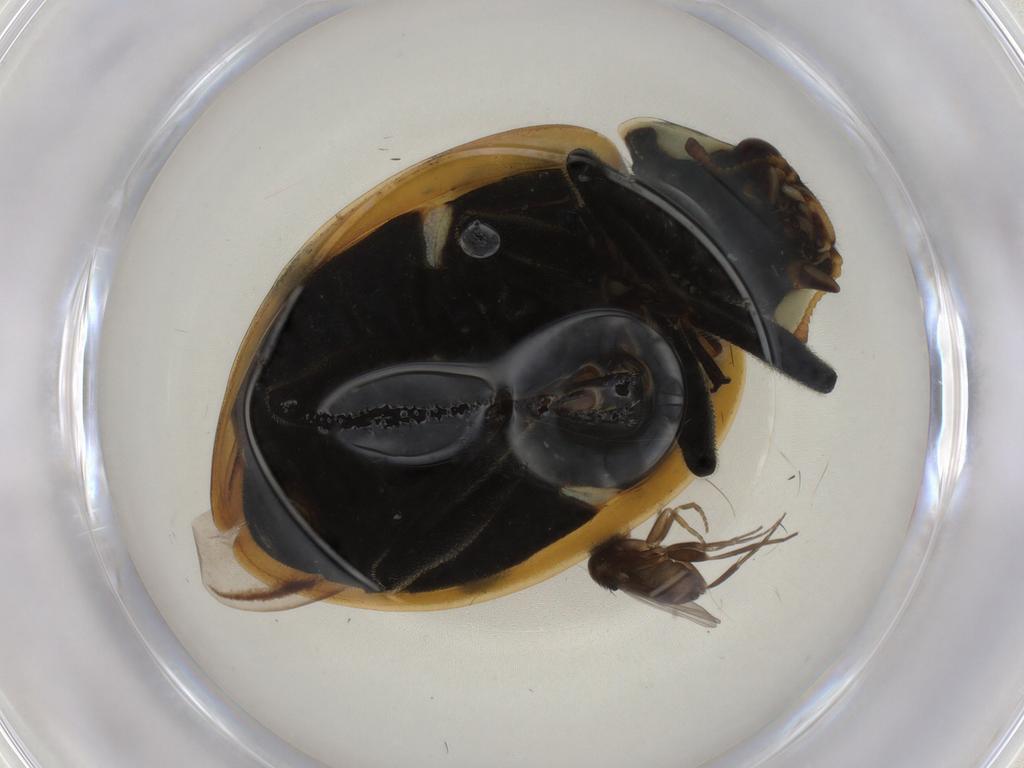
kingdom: Animalia
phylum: Arthropoda
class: Insecta
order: Coleoptera
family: Coccinellidae
